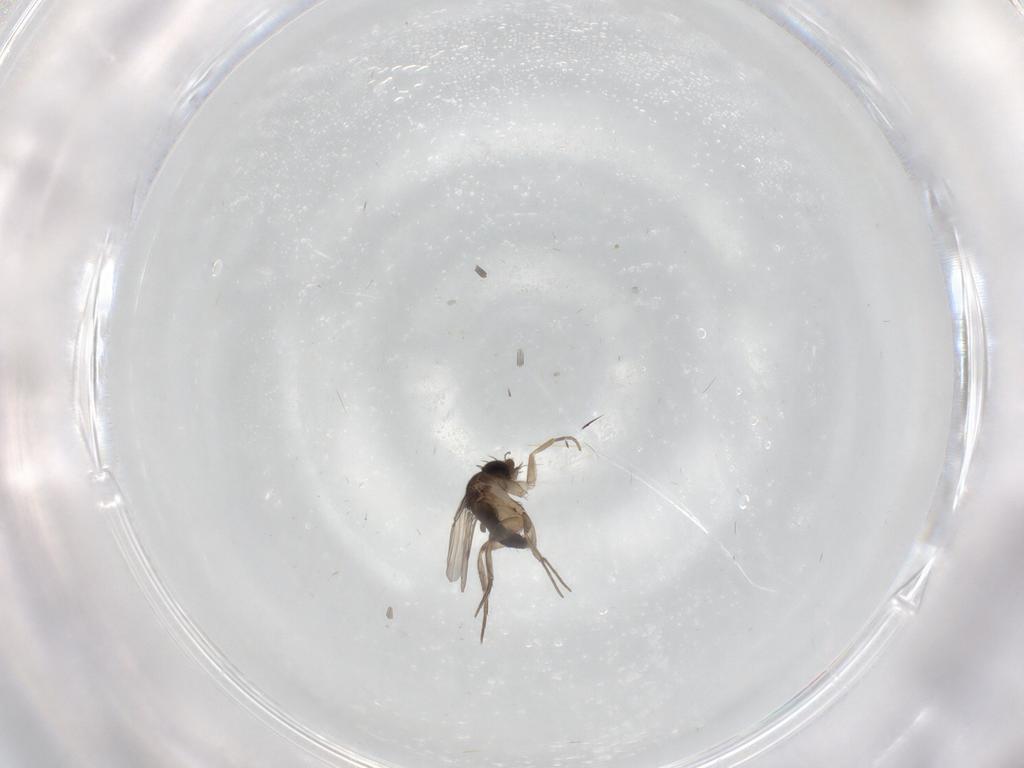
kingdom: Animalia
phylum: Arthropoda
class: Insecta
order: Diptera
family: Phoridae
